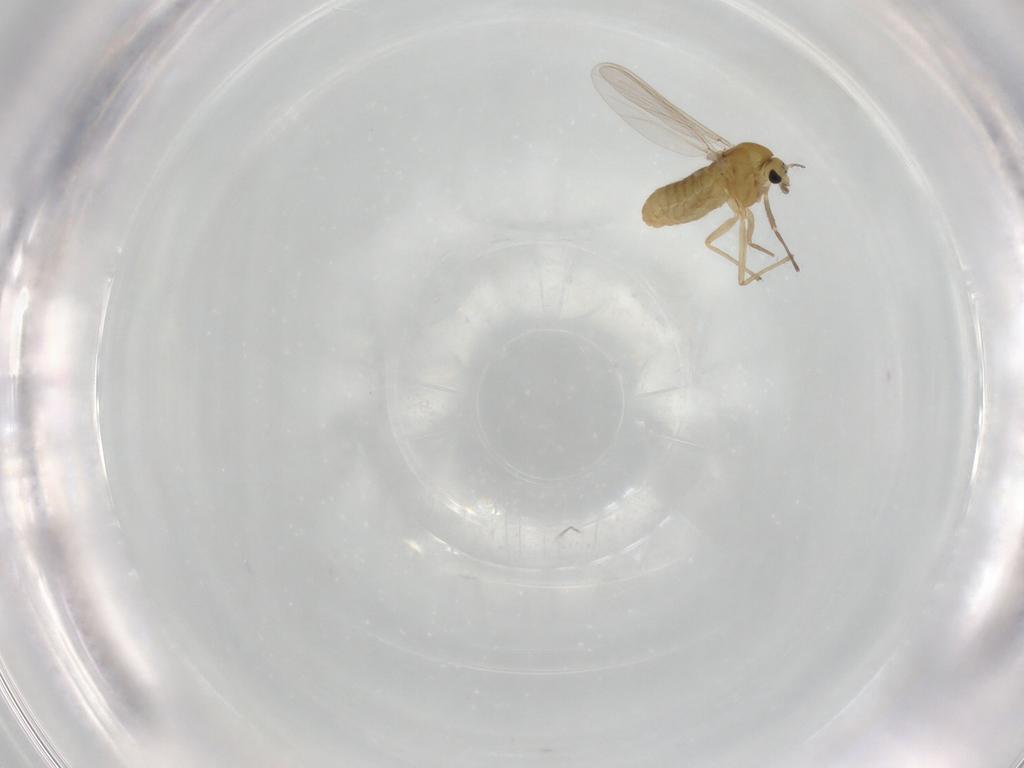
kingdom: Animalia
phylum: Arthropoda
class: Insecta
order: Diptera
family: Chironomidae
